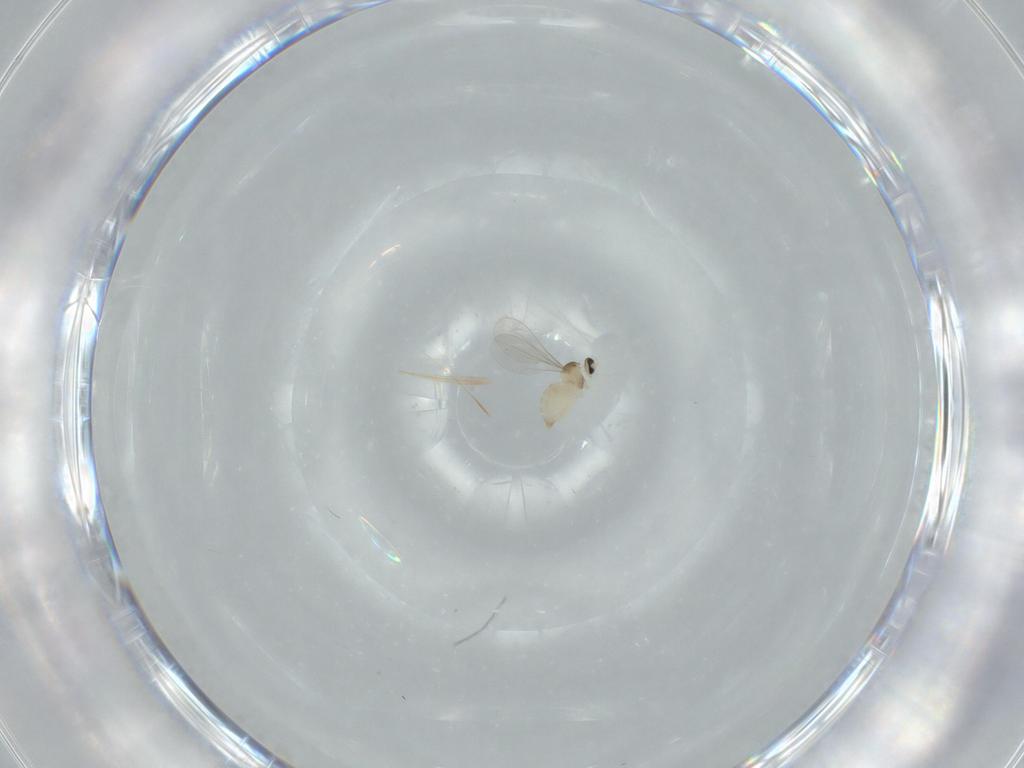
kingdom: Animalia
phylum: Arthropoda
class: Insecta
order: Diptera
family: Cecidomyiidae
